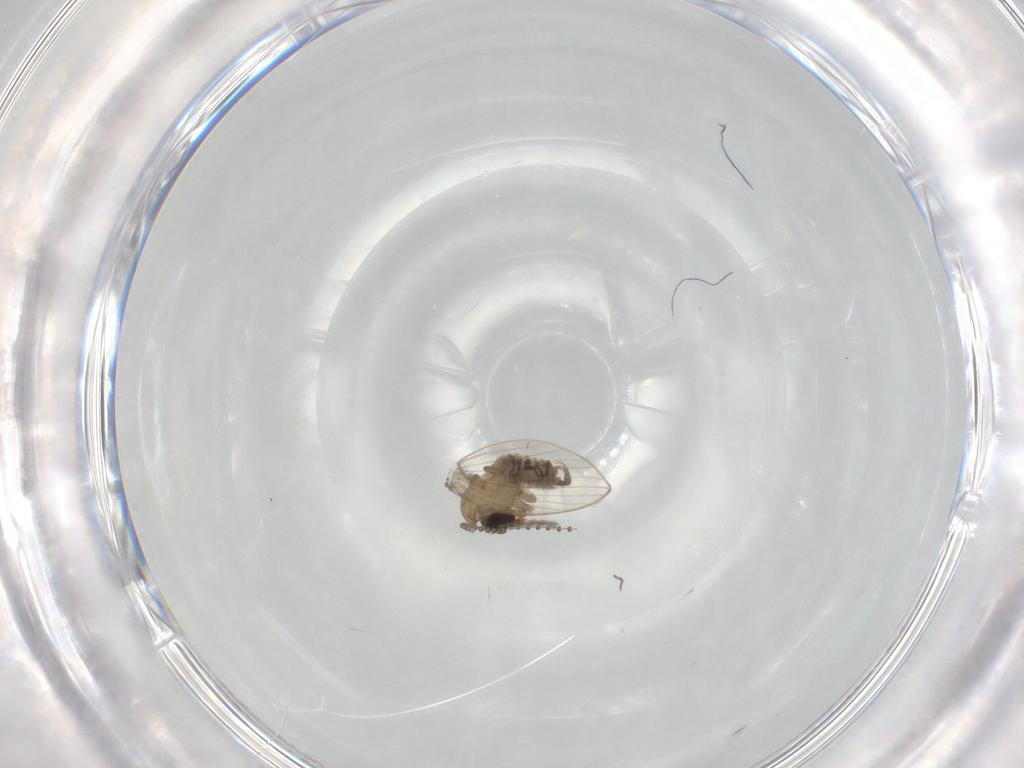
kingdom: Animalia
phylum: Arthropoda
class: Insecta
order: Diptera
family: Psychodidae
